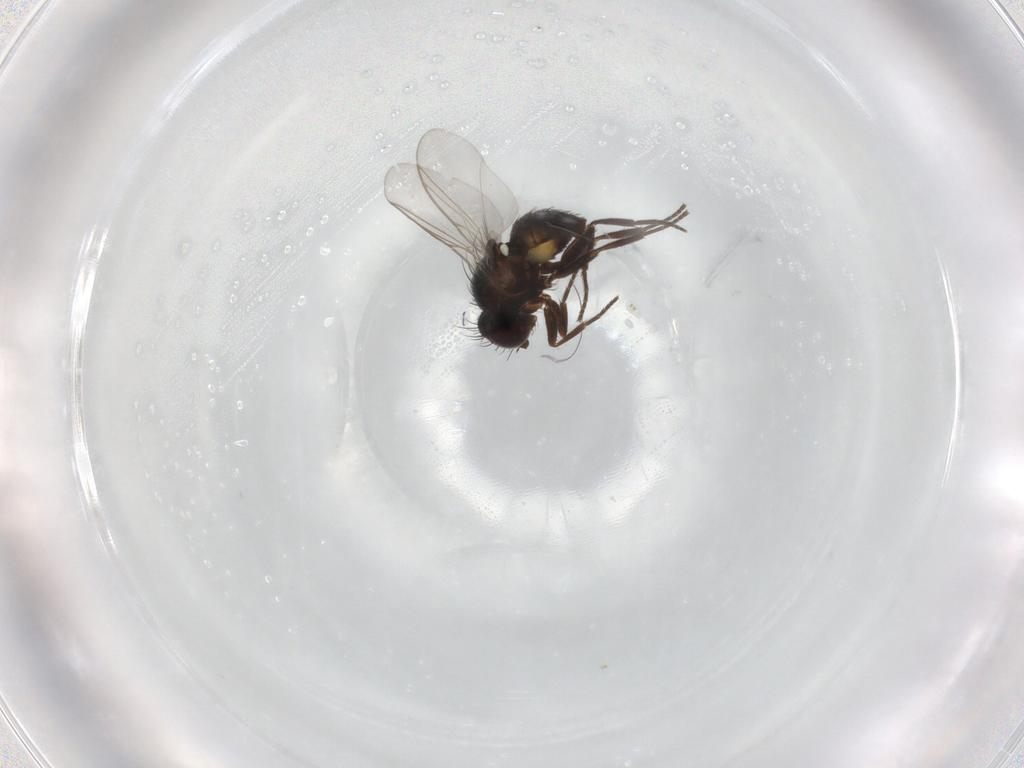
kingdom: Animalia
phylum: Arthropoda
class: Insecta
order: Diptera
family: Agromyzidae
